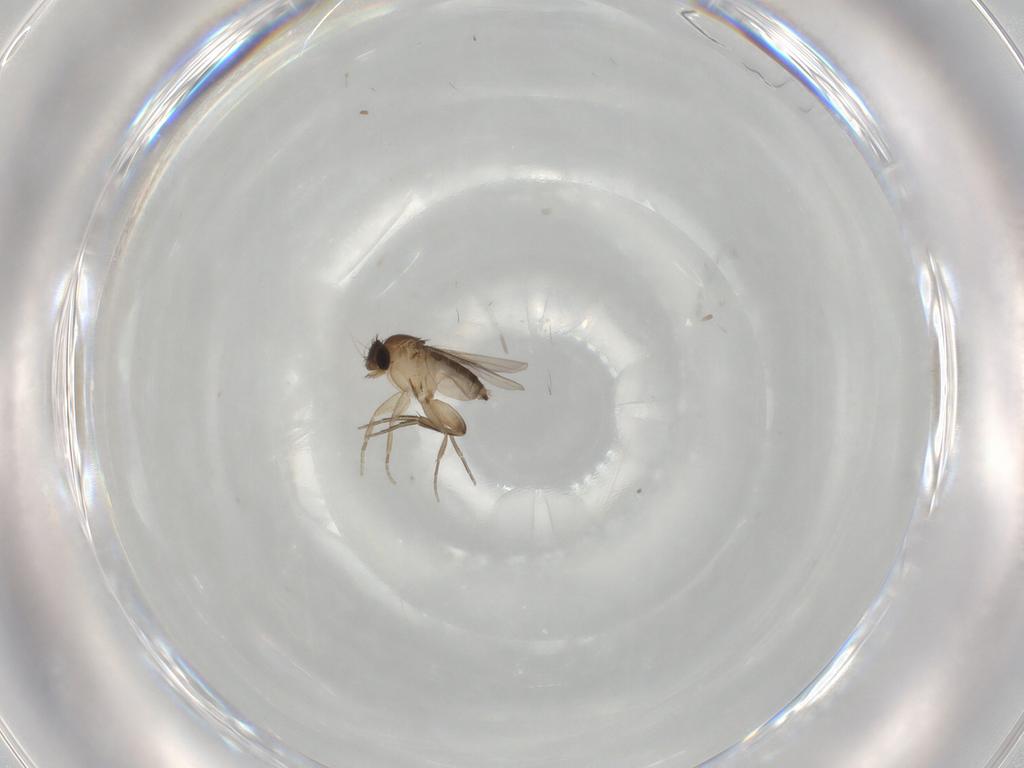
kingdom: Animalia
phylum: Arthropoda
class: Insecta
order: Diptera
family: Phoridae
